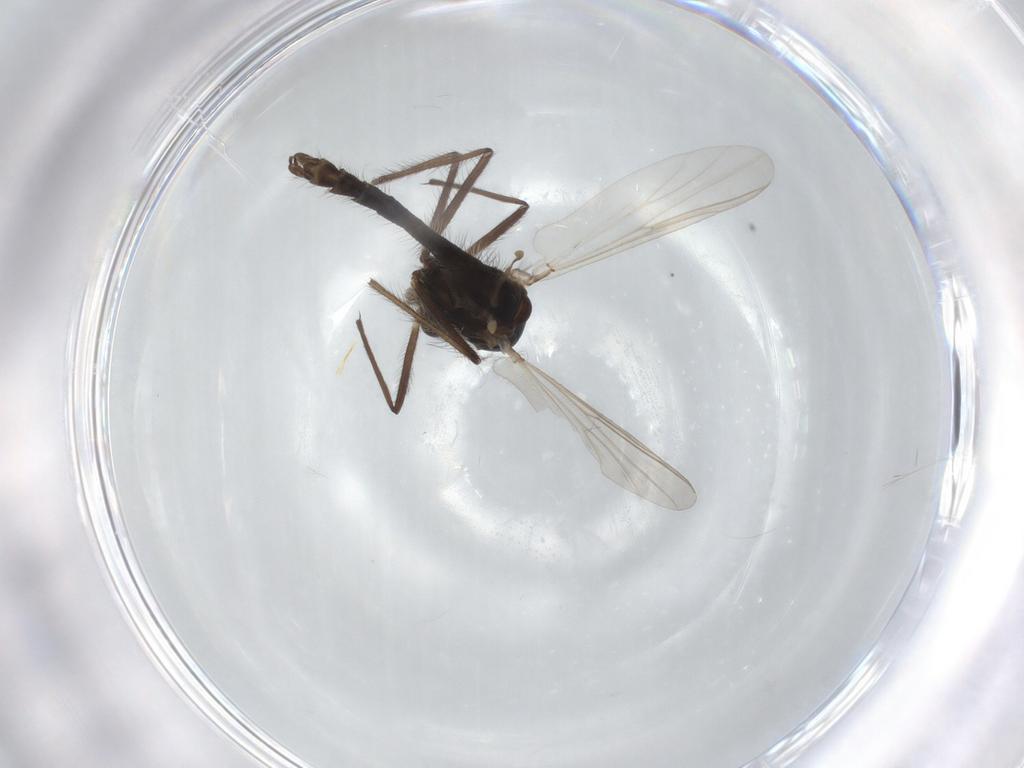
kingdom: Animalia
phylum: Arthropoda
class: Insecta
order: Diptera
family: Chironomidae
